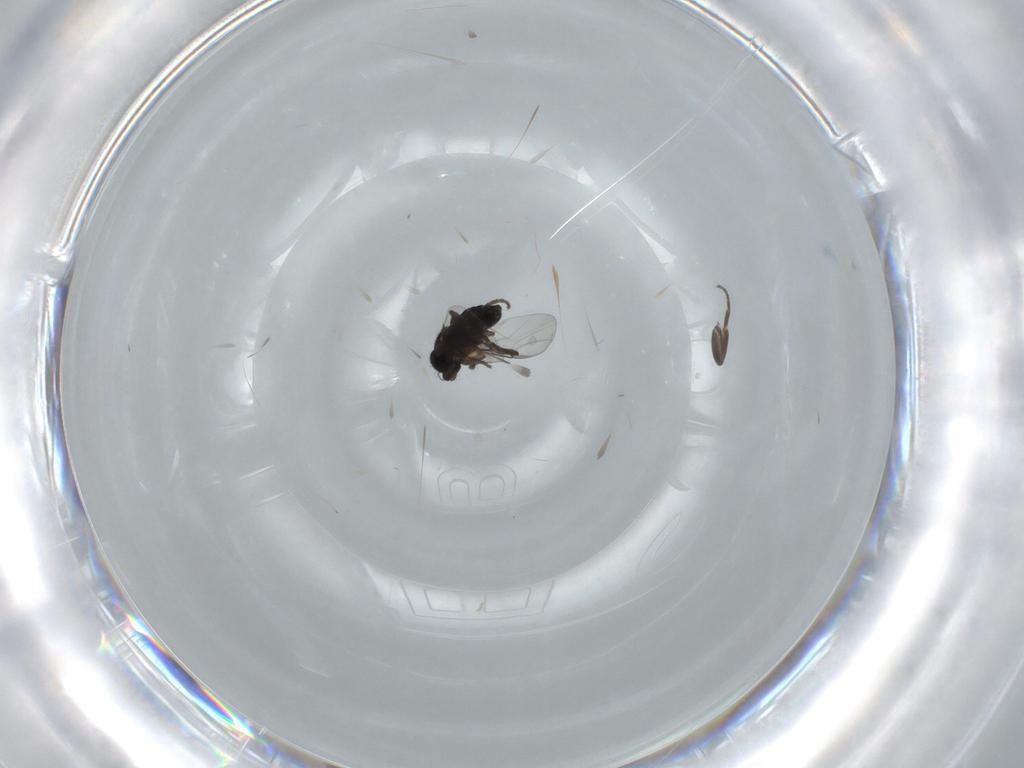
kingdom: Animalia
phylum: Arthropoda
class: Insecta
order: Diptera
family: Phoridae
